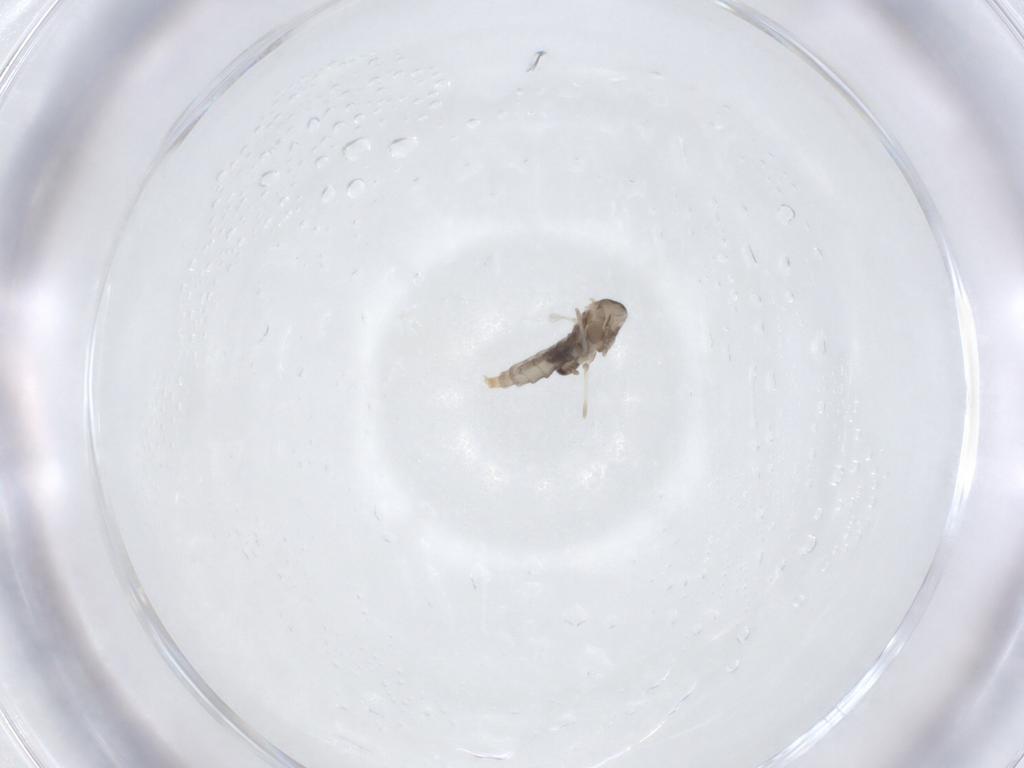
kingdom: Animalia
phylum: Arthropoda
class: Insecta
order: Diptera
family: Cecidomyiidae
